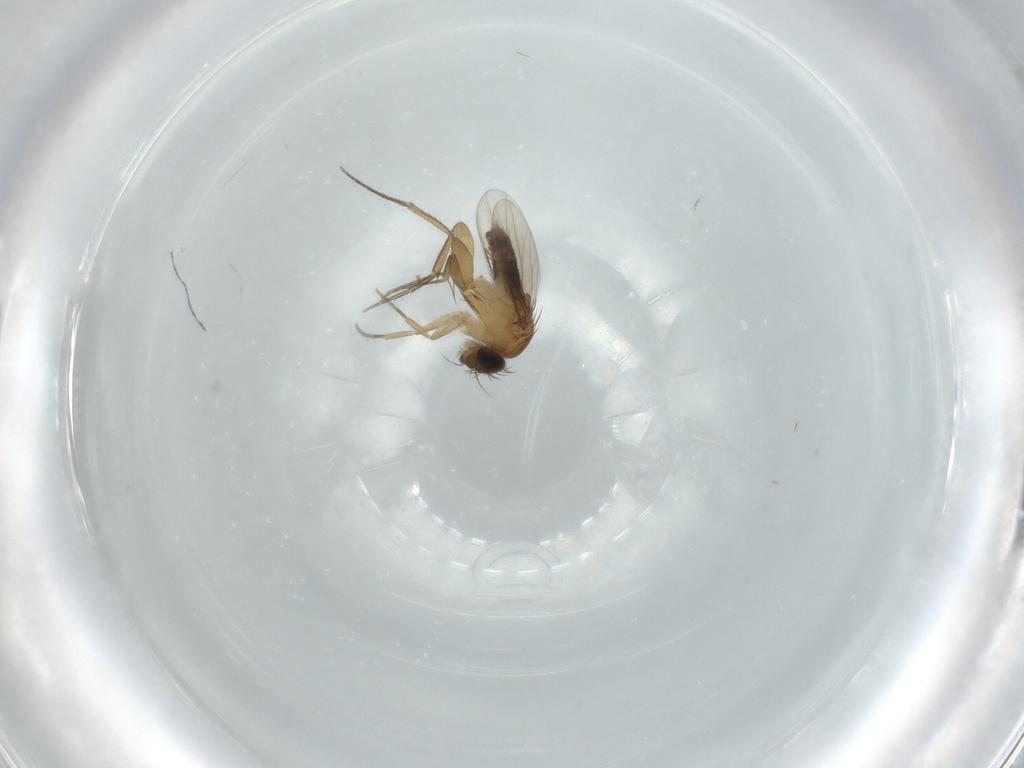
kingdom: Animalia
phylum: Arthropoda
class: Insecta
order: Diptera
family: Phoridae
